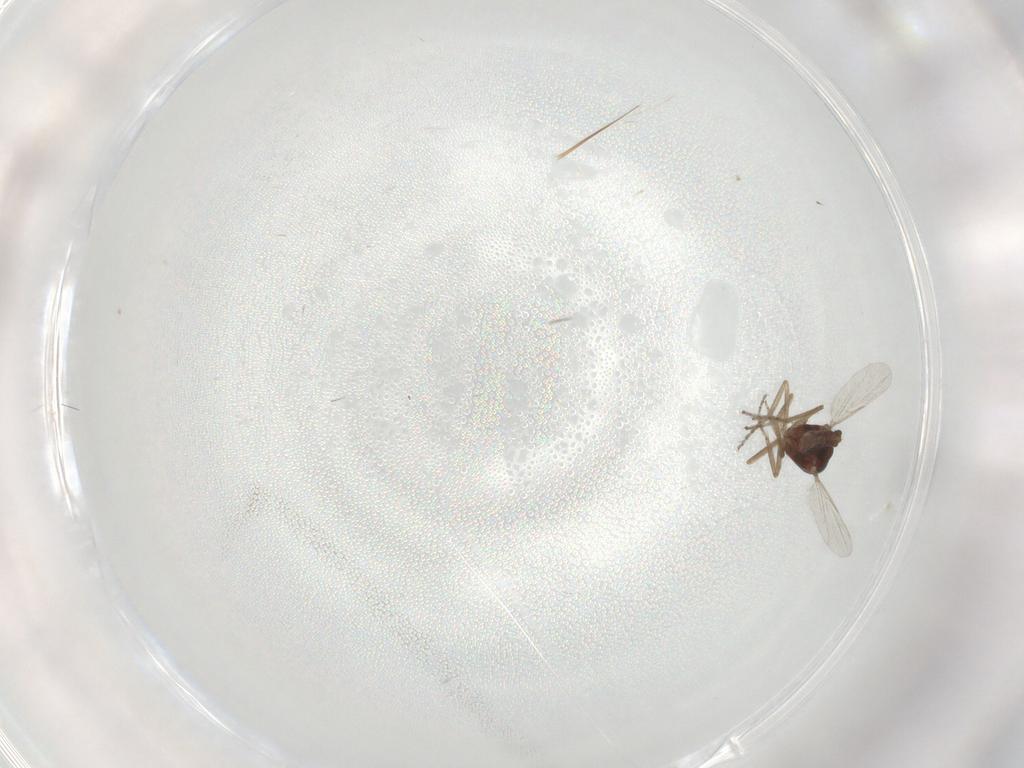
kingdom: Animalia
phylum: Arthropoda
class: Insecta
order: Diptera
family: Ceratopogonidae
